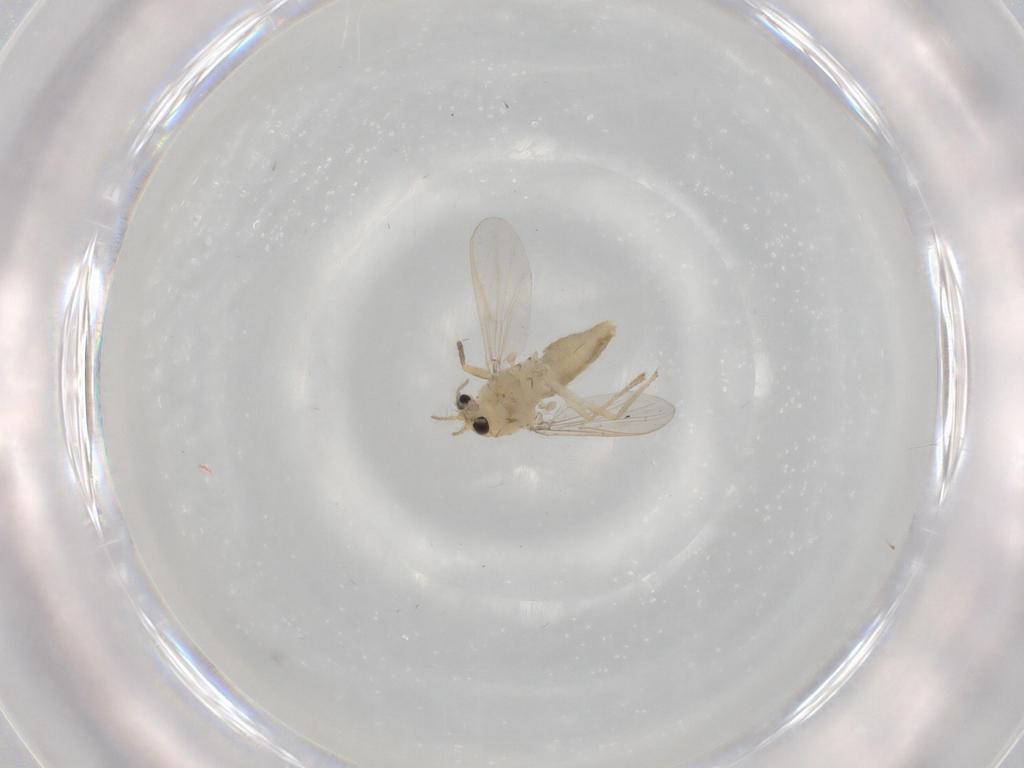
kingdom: Animalia
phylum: Arthropoda
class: Insecta
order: Diptera
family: Chironomidae
